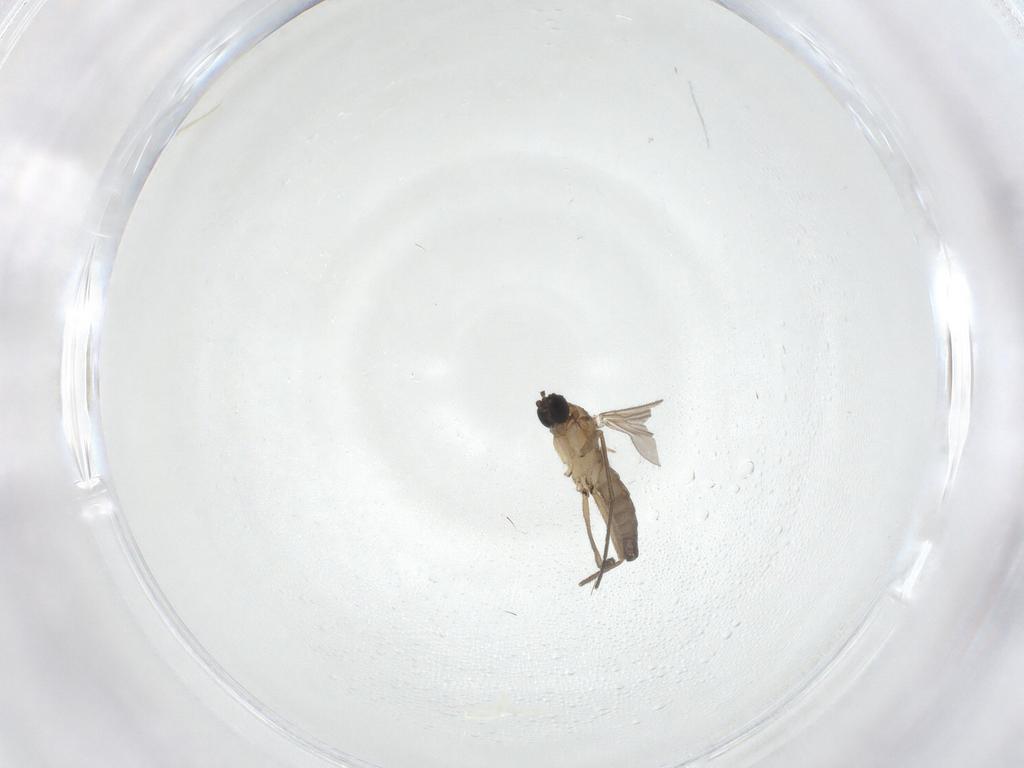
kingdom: Animalia
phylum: Arthropoda
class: Insecta
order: Diptera
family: Sciaridae
